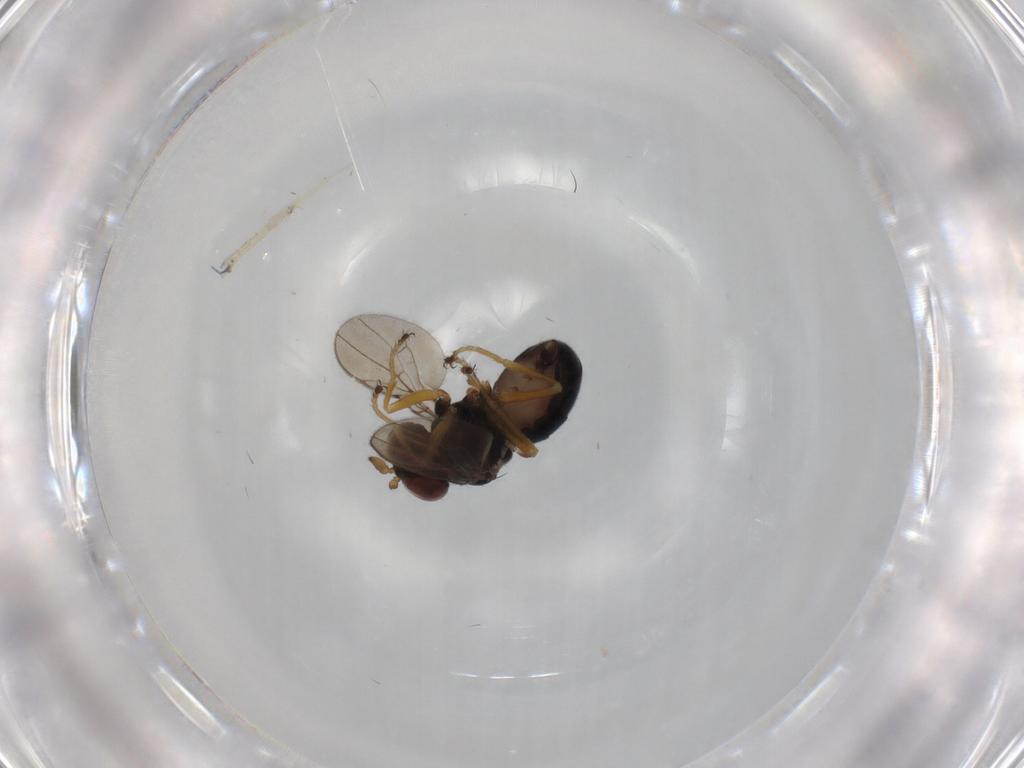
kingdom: Animalia
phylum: Arthropoda
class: Insecta
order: Diptera
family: Ephydridae
